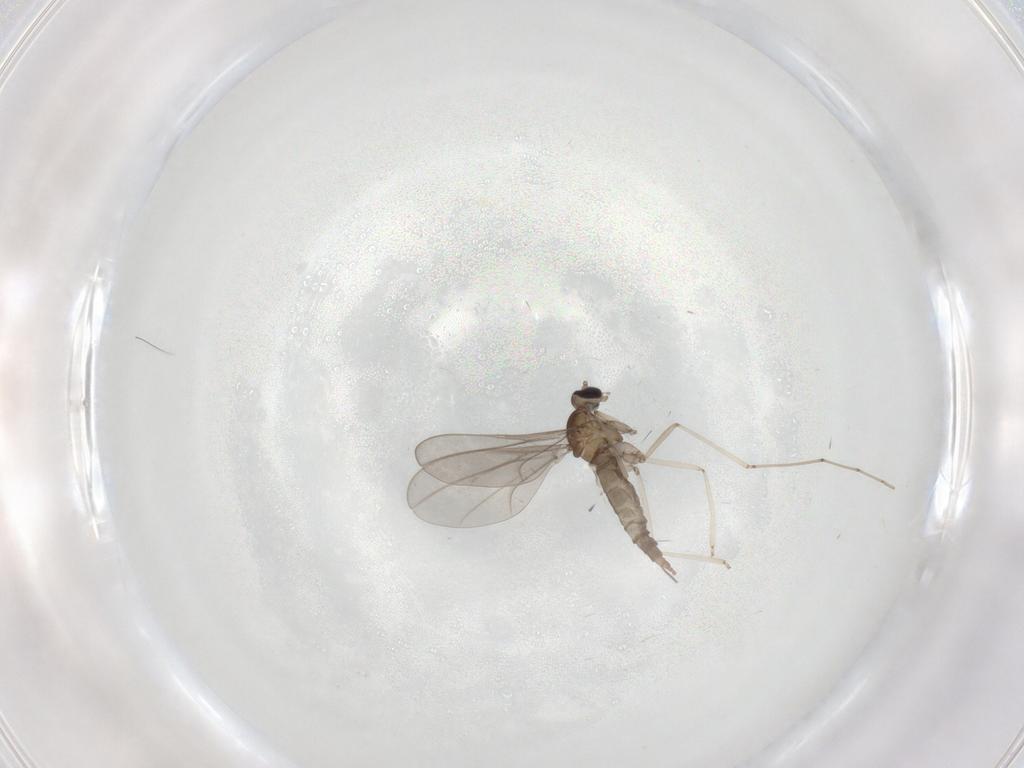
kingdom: Animalia
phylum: Arthropoda
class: Insecta
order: Diptera
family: Cecidomyiidae
